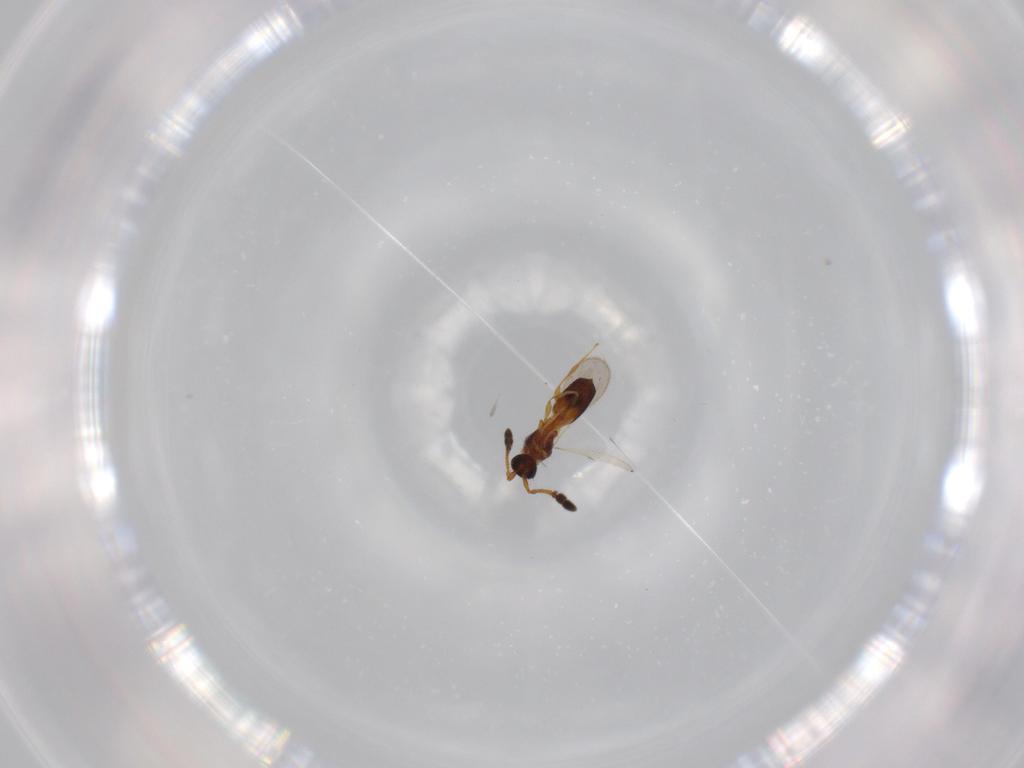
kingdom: Animalia
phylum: Arthropoda
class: Insecta
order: Hymenoptera
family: Diapriidae
